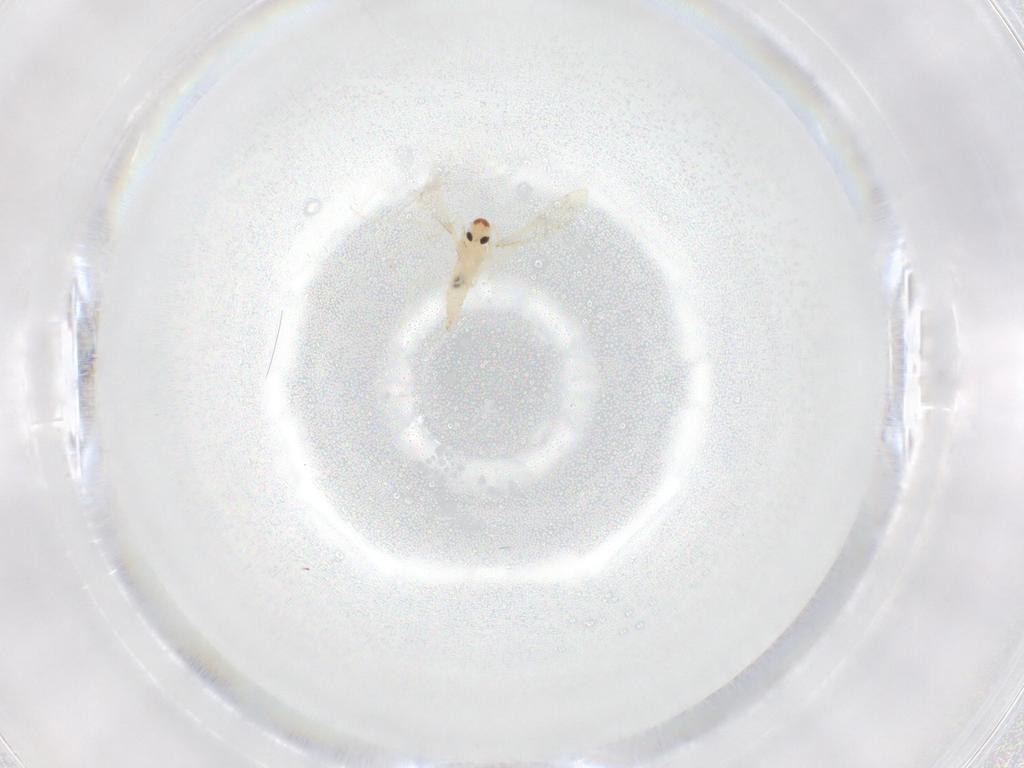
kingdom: Animalia
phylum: Arthropoda
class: Insecta
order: Diptera
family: Cecidomyiidae
